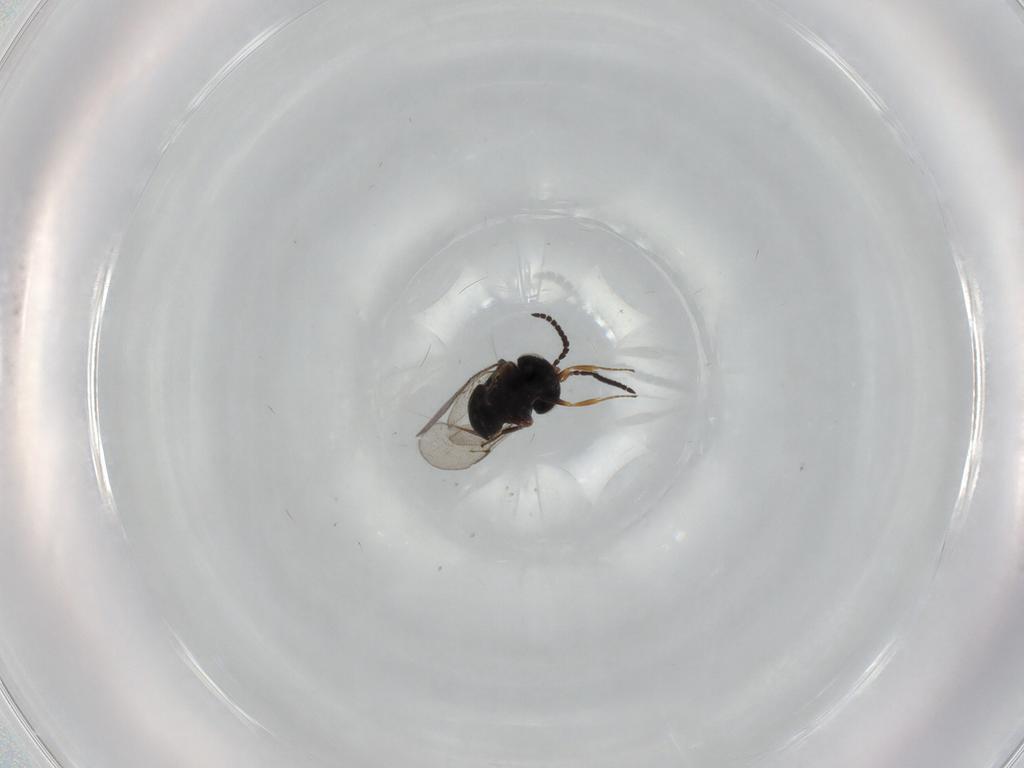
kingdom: Animalia
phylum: Arthropoda
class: Insecta
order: Hymenoptera
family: Scelionidae
